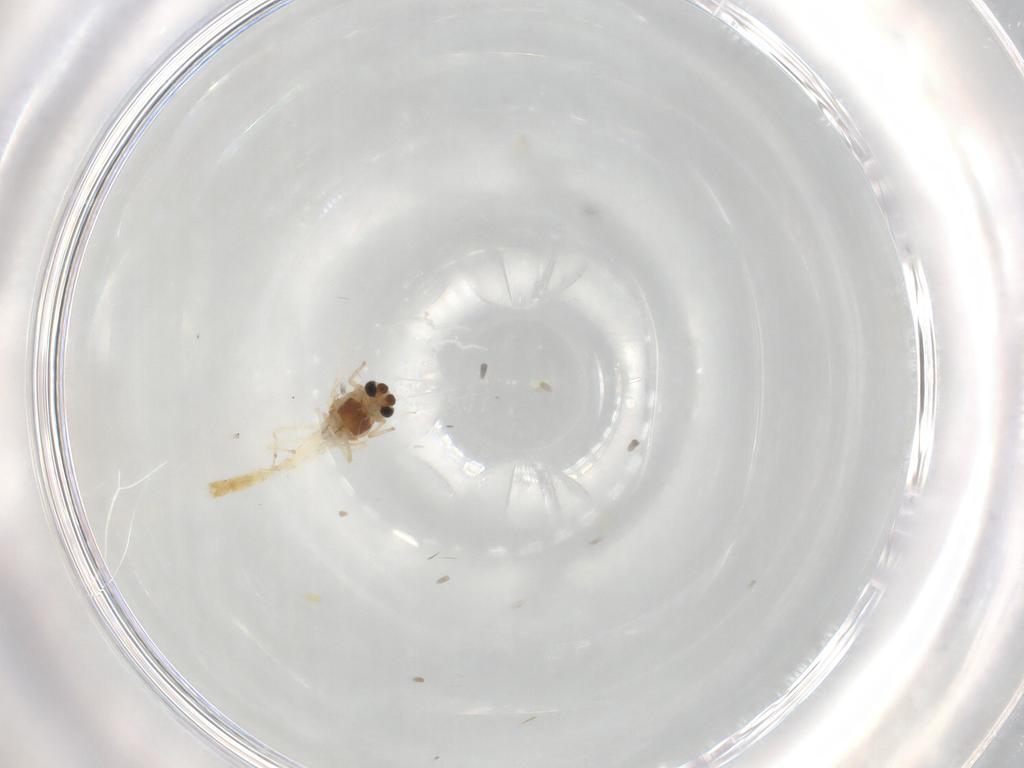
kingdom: Animalia
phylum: Arthropoda
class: Insecta
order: Diptera
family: Chironomidae
